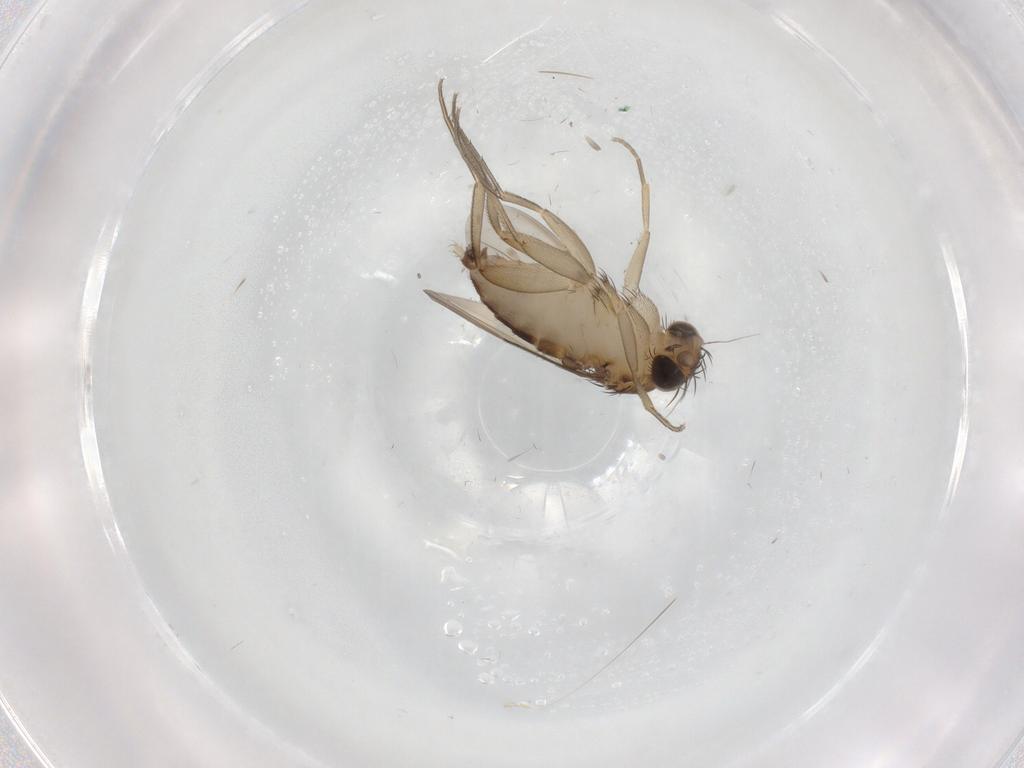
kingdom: Animalia
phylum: Arthropoda
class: Insecta
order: Diptera
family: Phoridae
